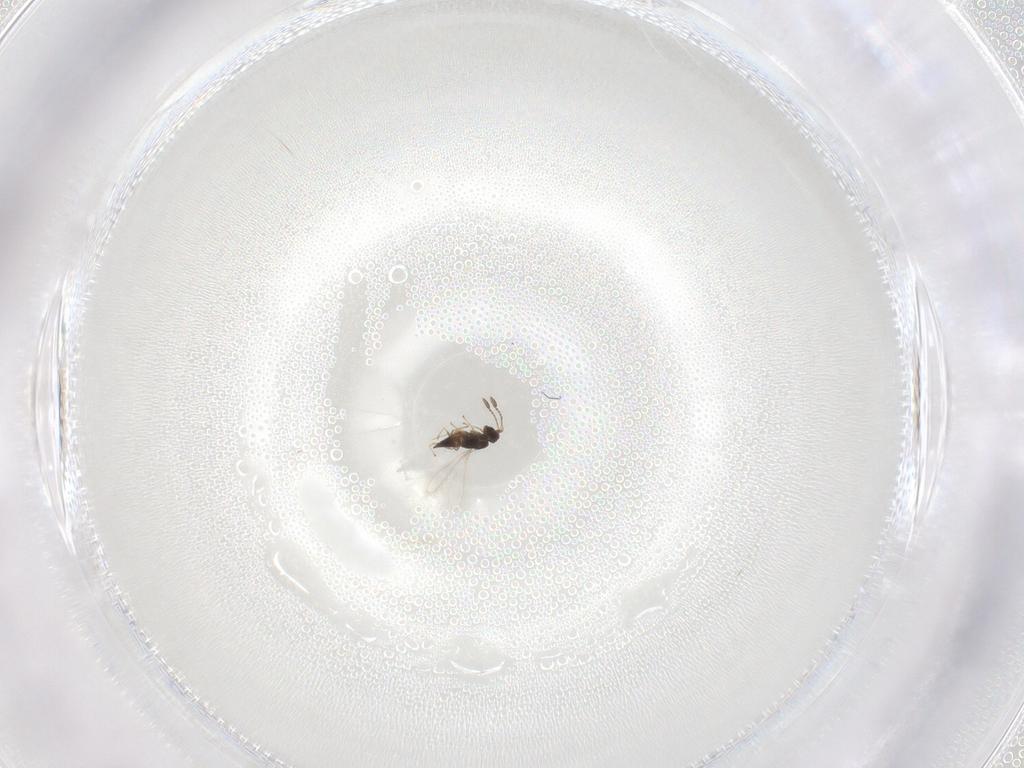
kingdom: Animalia
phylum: Arthropoda
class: Insecta
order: Hymenoptera
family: Mymaridae
